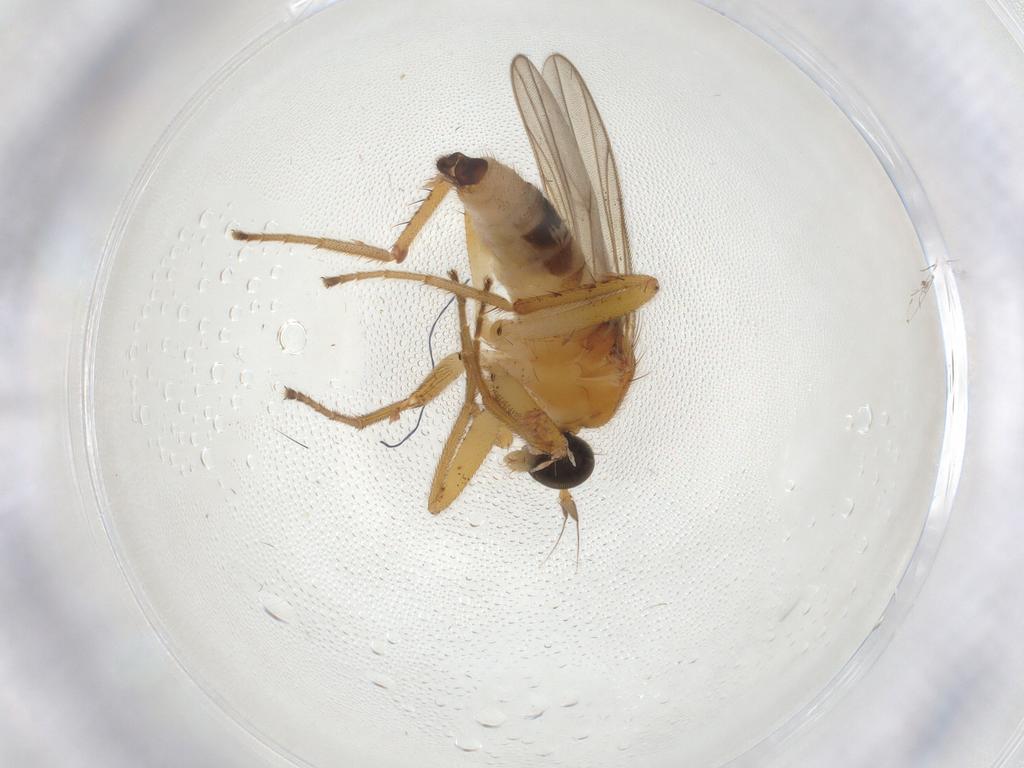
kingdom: Animalia
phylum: Arthropoda
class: Insecta
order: Diptera
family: Hybotidae
